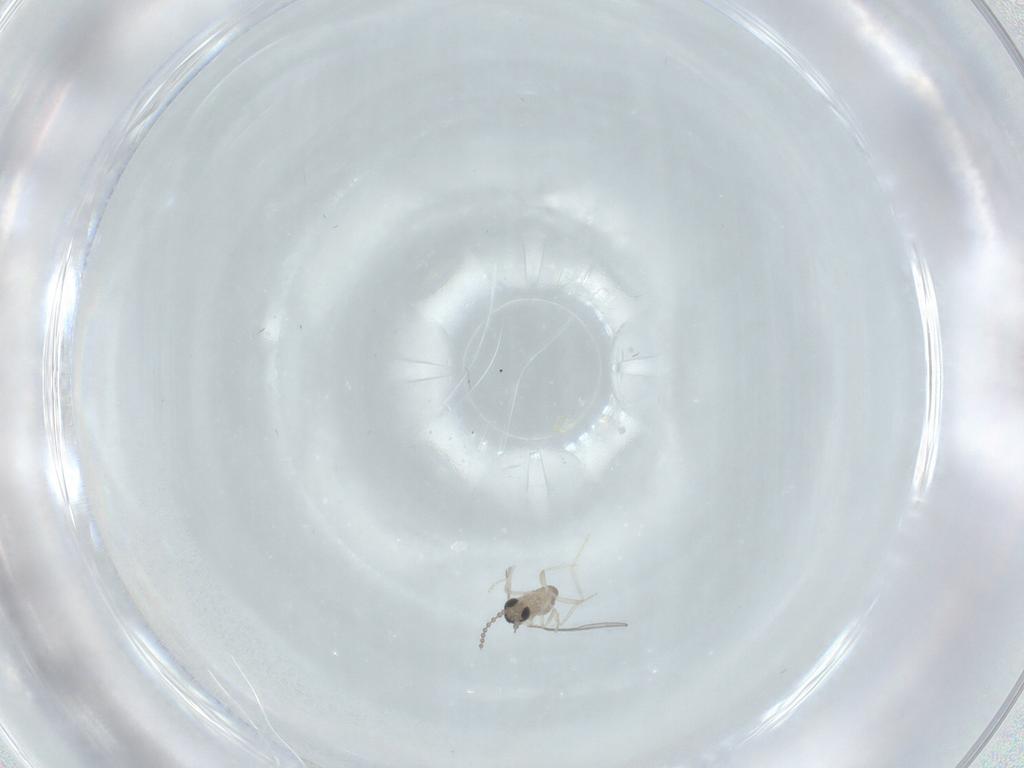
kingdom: Animalia
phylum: Arthropoda
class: Insecta
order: Diptera
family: Cecidomyiidae
